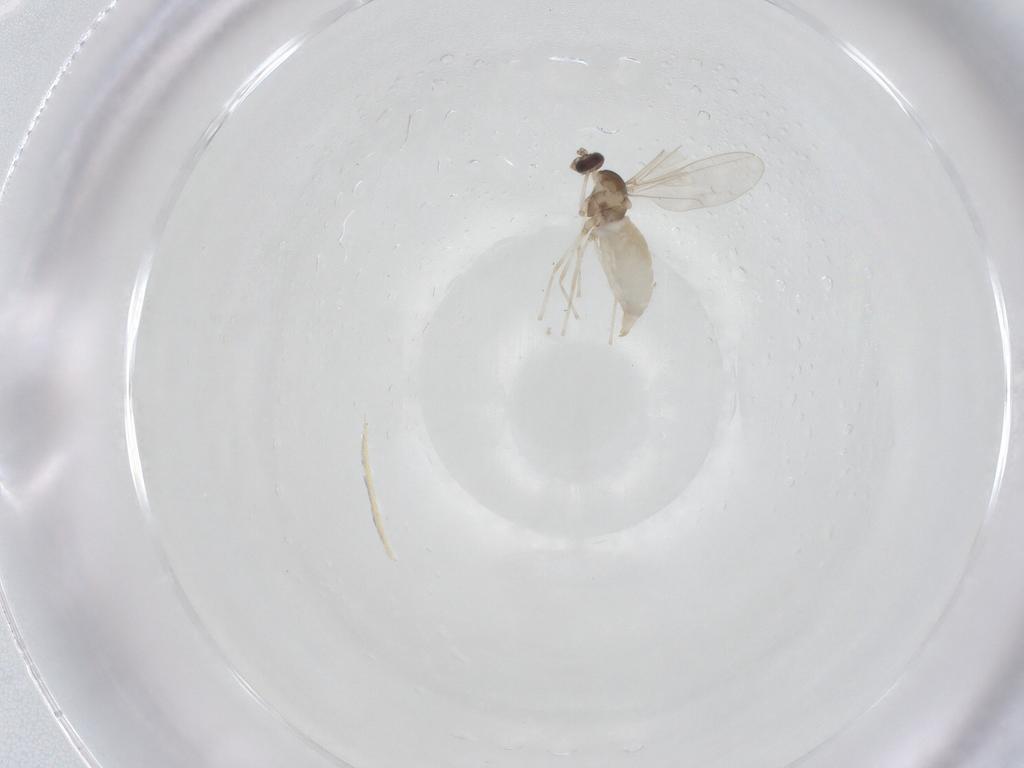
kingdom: Animalia
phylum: Arthropoda
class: Insecta
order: Diptera
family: Cecidomyiidae
